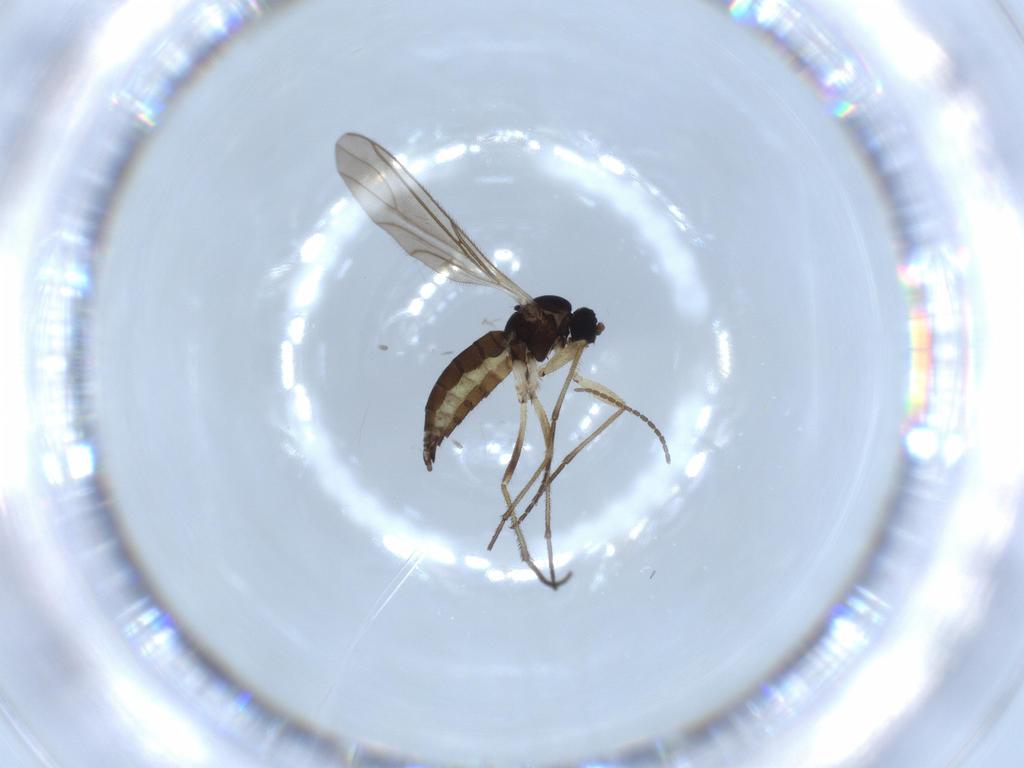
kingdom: Animalia
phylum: Arthropoda
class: Insecta
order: Diptera
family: Sciaridae
